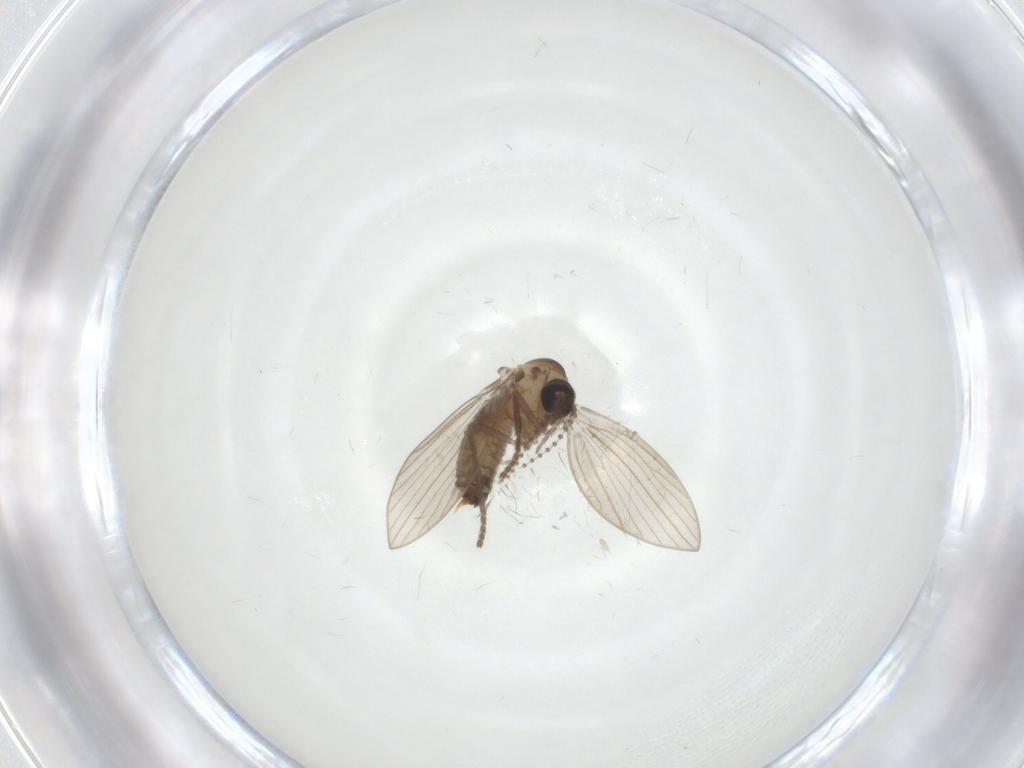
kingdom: Animalia
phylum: Arthropoda
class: Insecta
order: Diptera
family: Psychodidae
